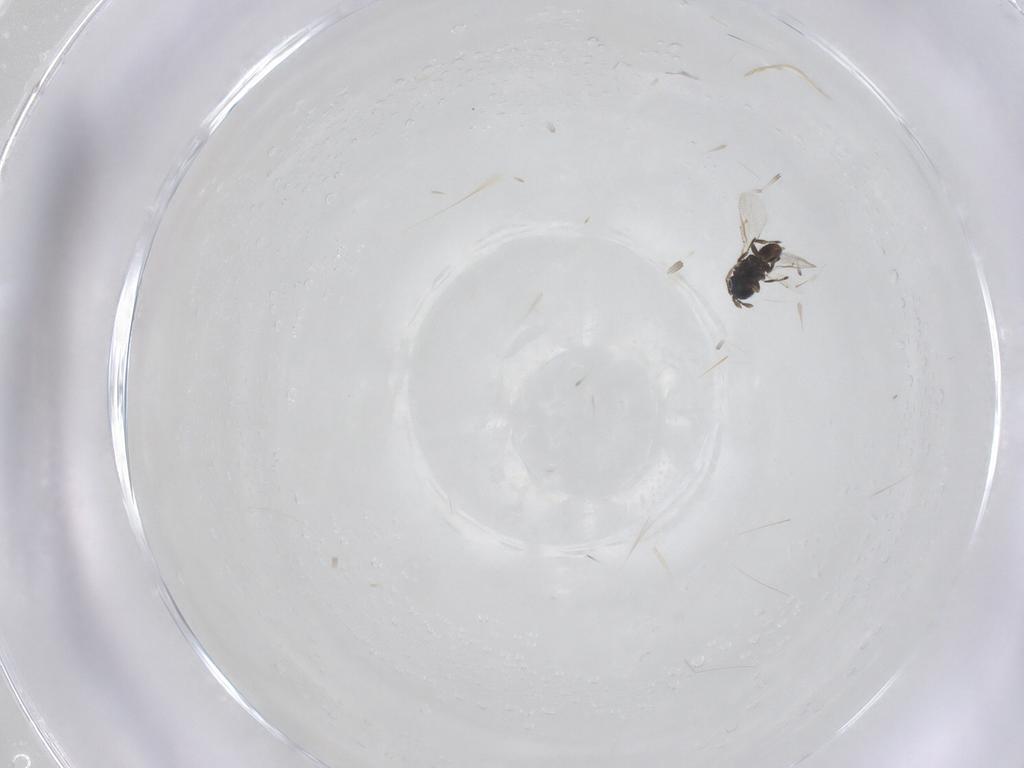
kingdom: Animalia
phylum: Arthropoda
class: Insecta
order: Hymenoptera
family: Eulophidae
